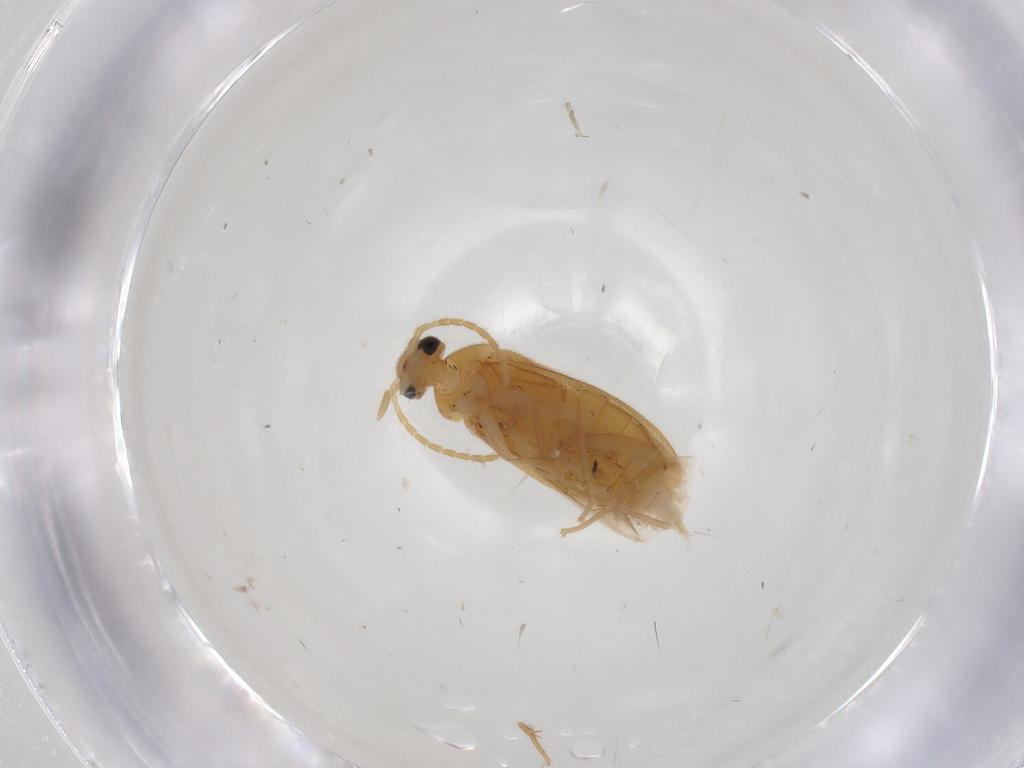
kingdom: Animalia
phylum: Arthropoda
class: Insecta
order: Coleoptera
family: Scraptiidae
